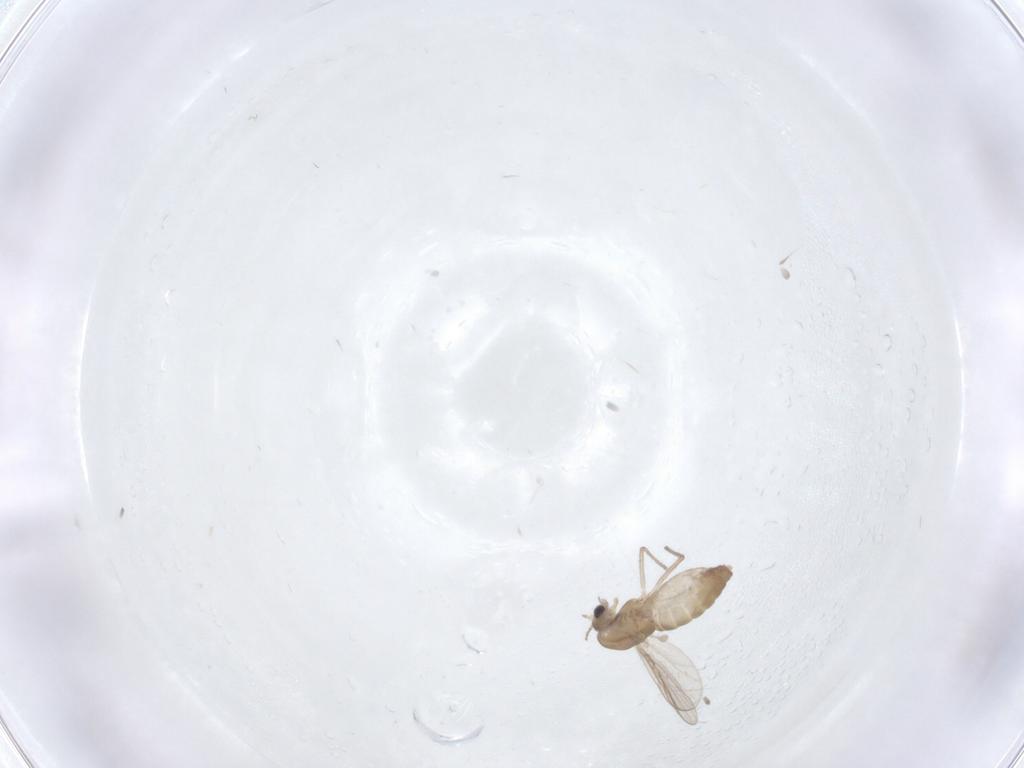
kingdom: Animalia
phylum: Arthropoda
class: Insecta
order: Diptera
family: Chironomidae
